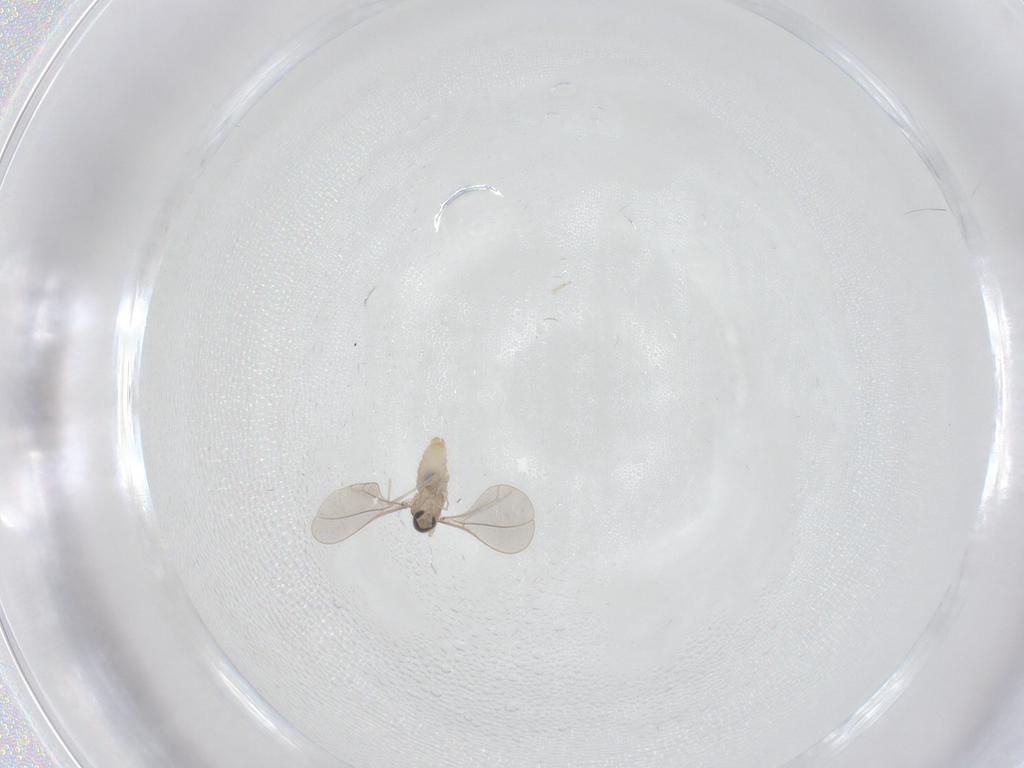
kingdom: Animalia
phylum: Arthropoda
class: Insecta
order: Diptera
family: Cecidomyiidae
